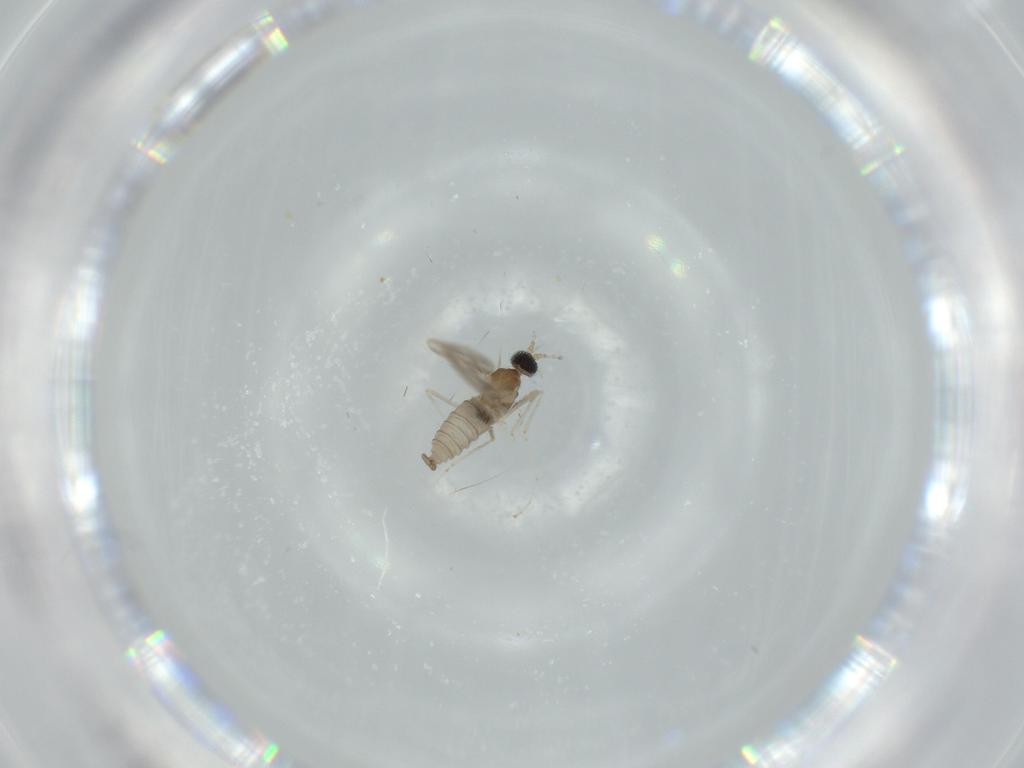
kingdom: Animalia
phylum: Arthropoda
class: Insecta
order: Diptera
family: Cecidomyiidae
